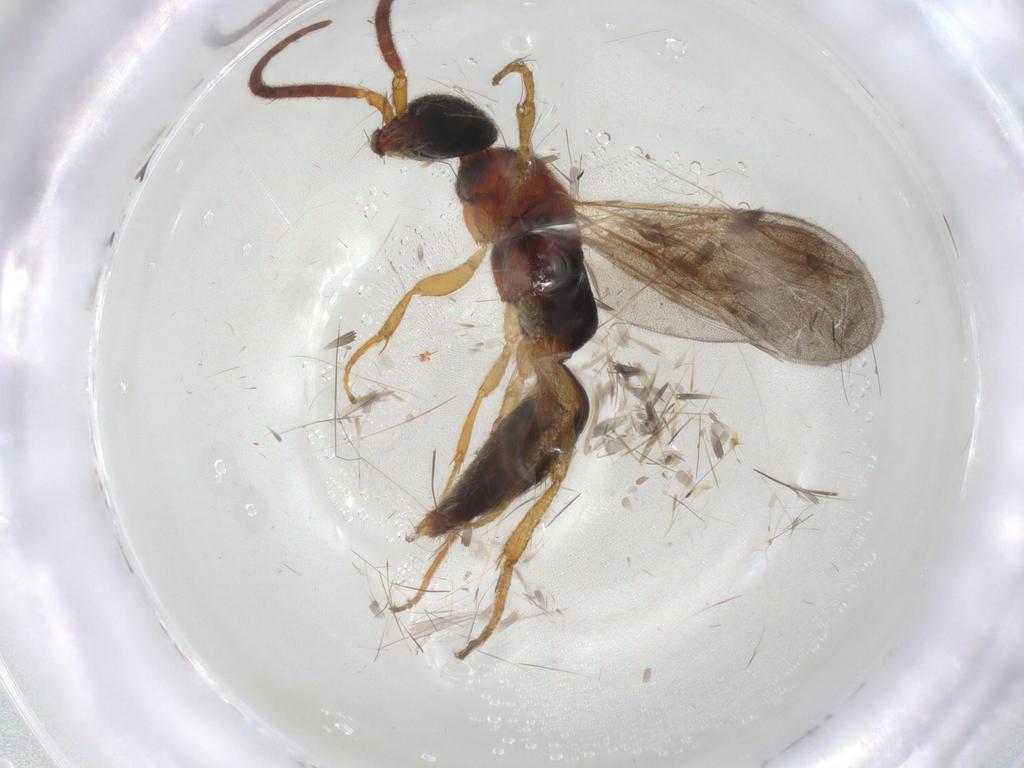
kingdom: Animalia
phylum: Arthropoda
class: Insecta
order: Hymenoptera
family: Bethylidae
